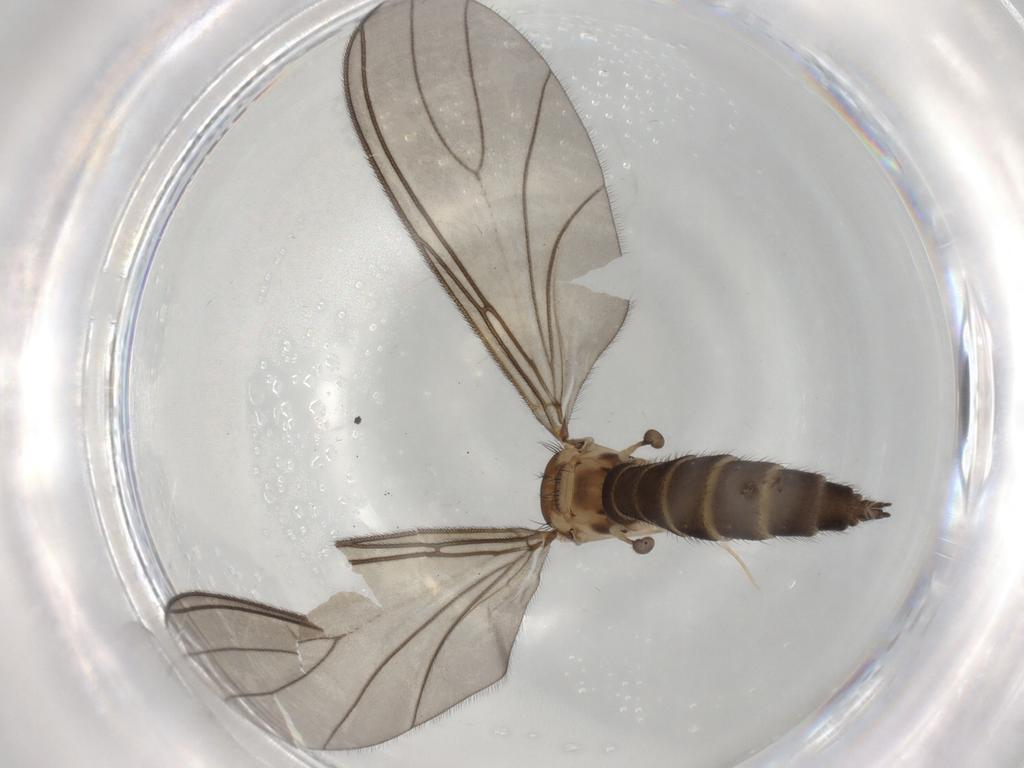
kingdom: Animalia
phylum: Arthropoda
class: Insecta
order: Diptera
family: Sciaridae
